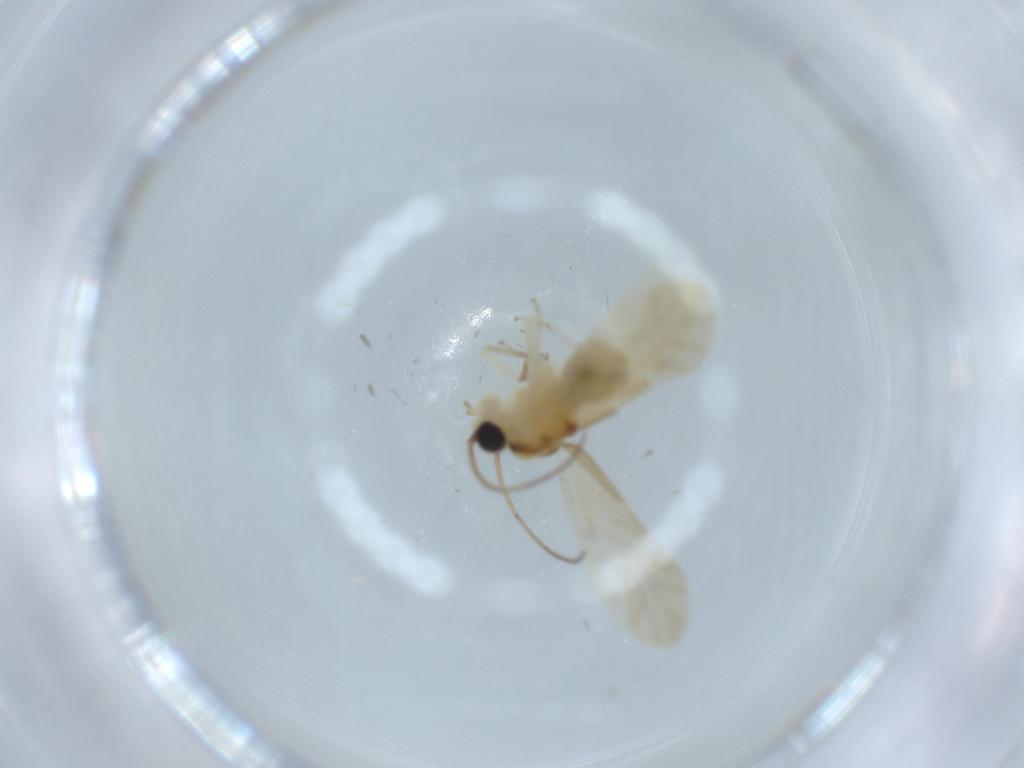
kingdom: Animalia
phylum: Arthropoda
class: Insecta
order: Psocodea
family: Caeciliusidae
